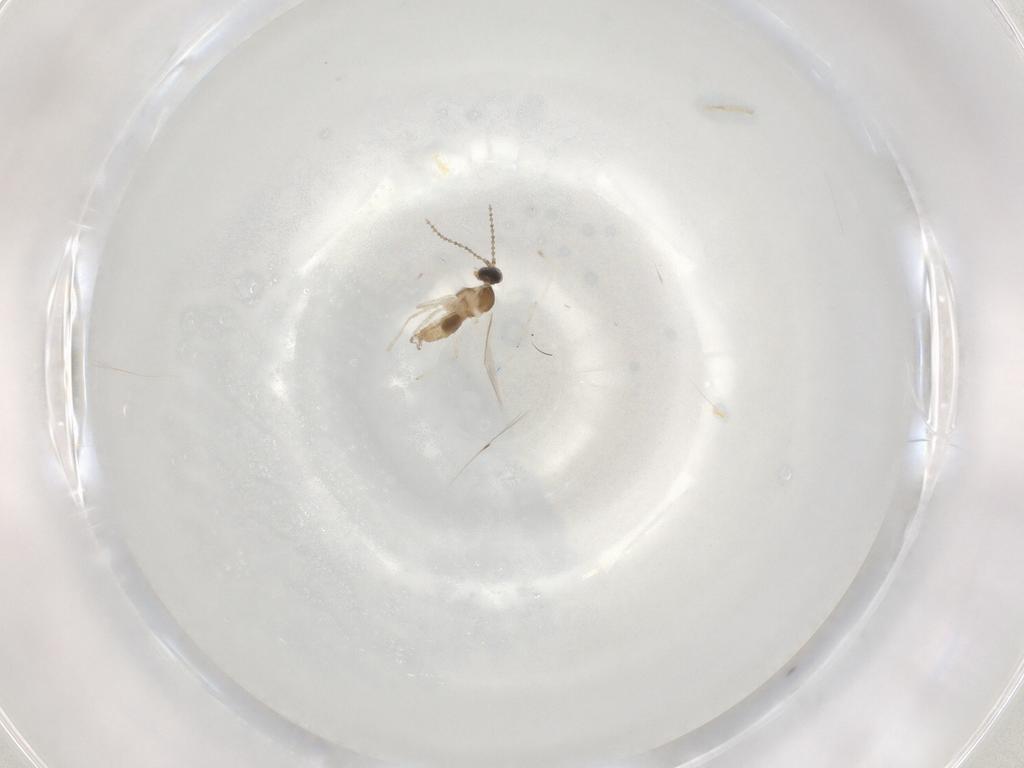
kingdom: Animalia
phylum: Arthropoda
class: Insecta
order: Diptera
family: Cecidomyiidae
